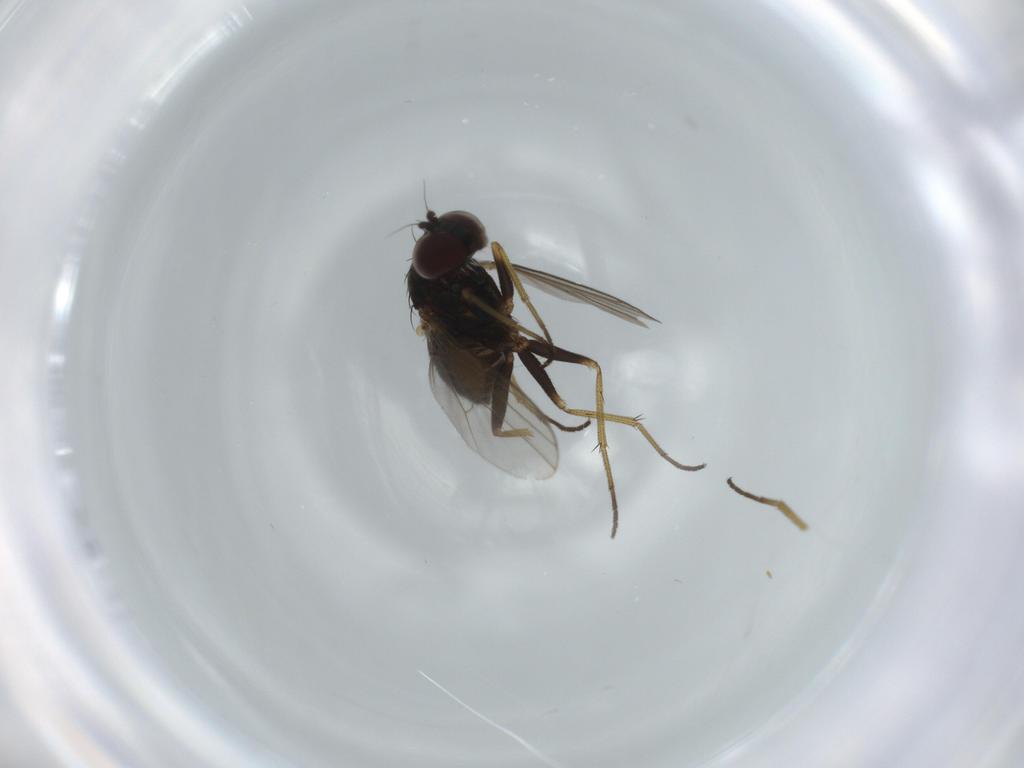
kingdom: Animalia
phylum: Arthropoda
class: Insecta
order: Diptera
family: Dolichopodidae
